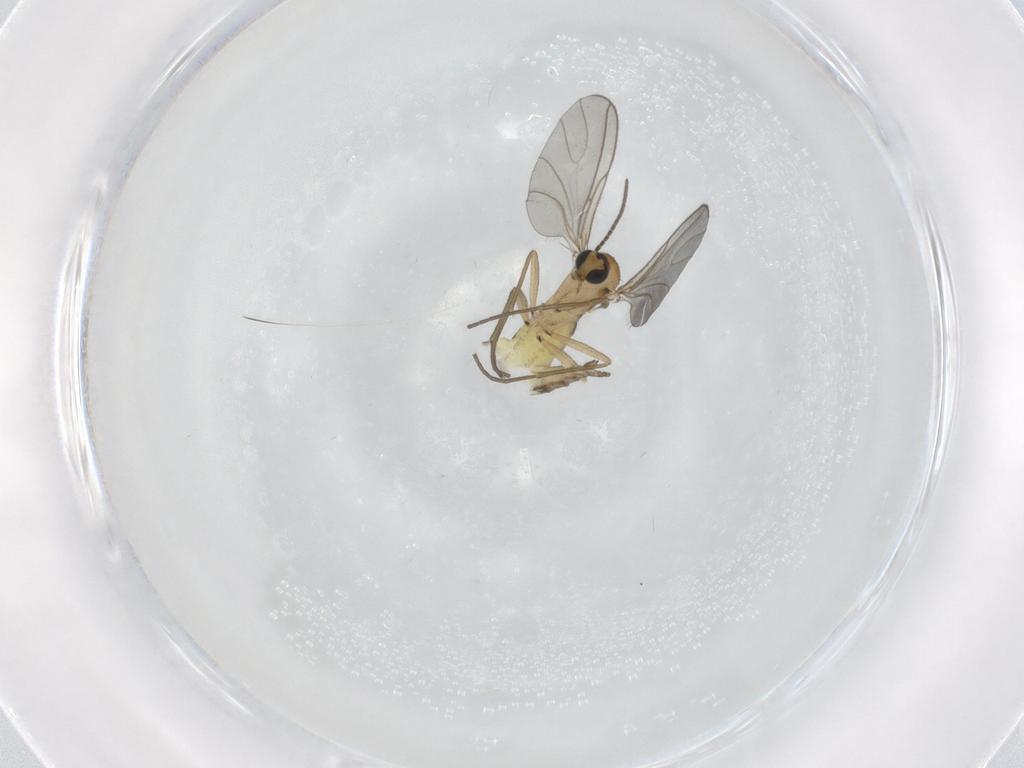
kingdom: Animalia
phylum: Arthropoda
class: Insecta
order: Diptera
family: Sciaridae
